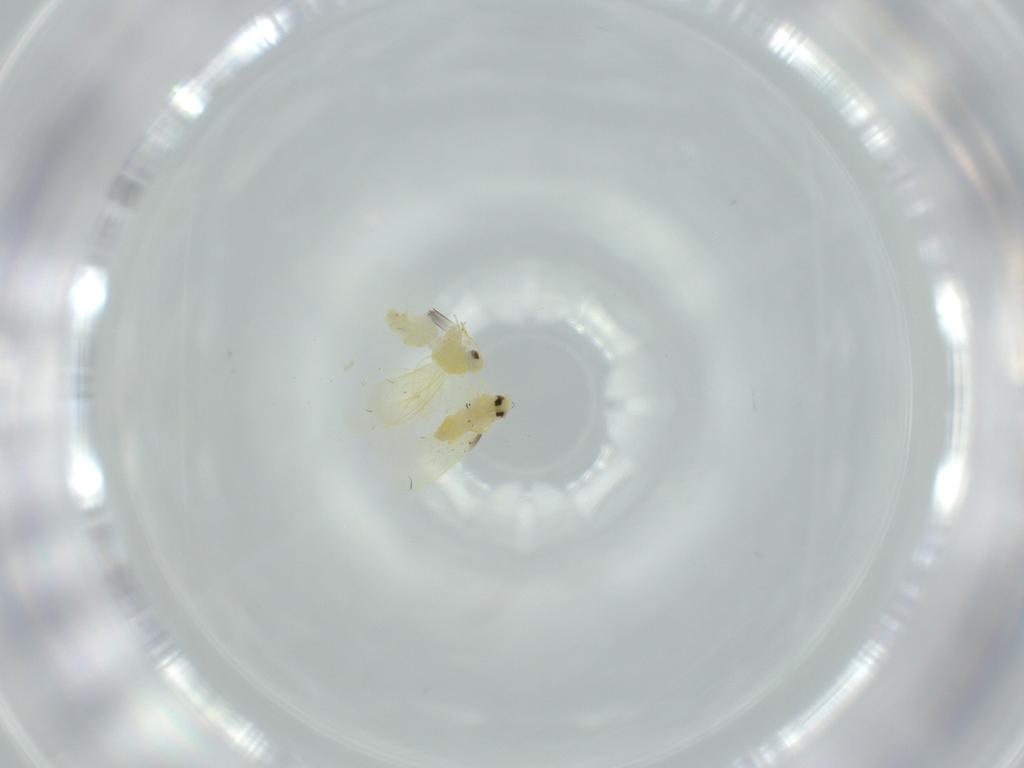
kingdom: Animalia
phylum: Arthropoda
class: Insecta
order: Hemiptera
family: Aleyrodidae
